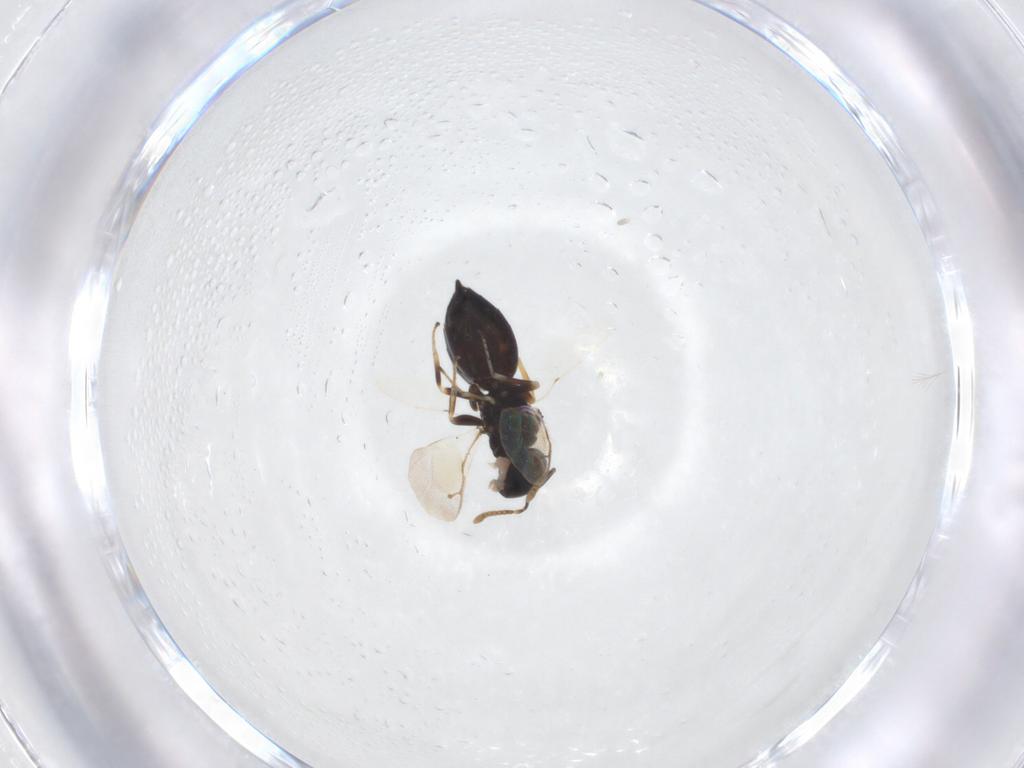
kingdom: Animalia
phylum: Arthropoda
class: Insecta
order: Hymenoptera
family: Pteromalidae
